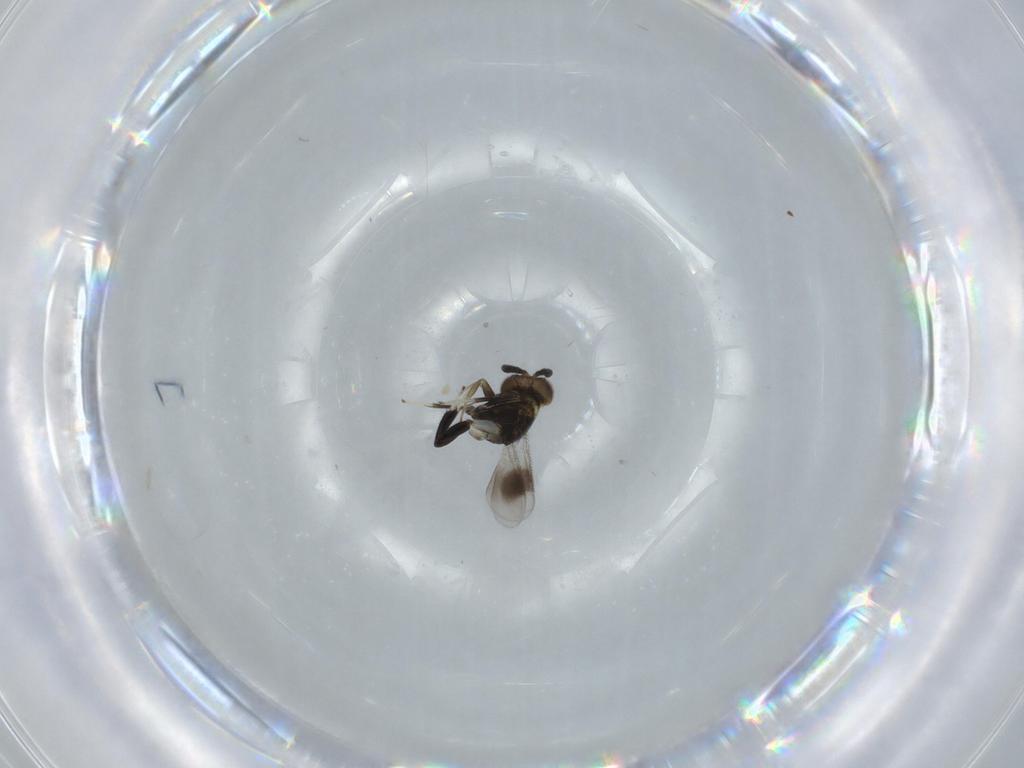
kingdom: Animalia
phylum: Arthropoda
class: Insecta
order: Hymenoptera
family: Aphelinidae
